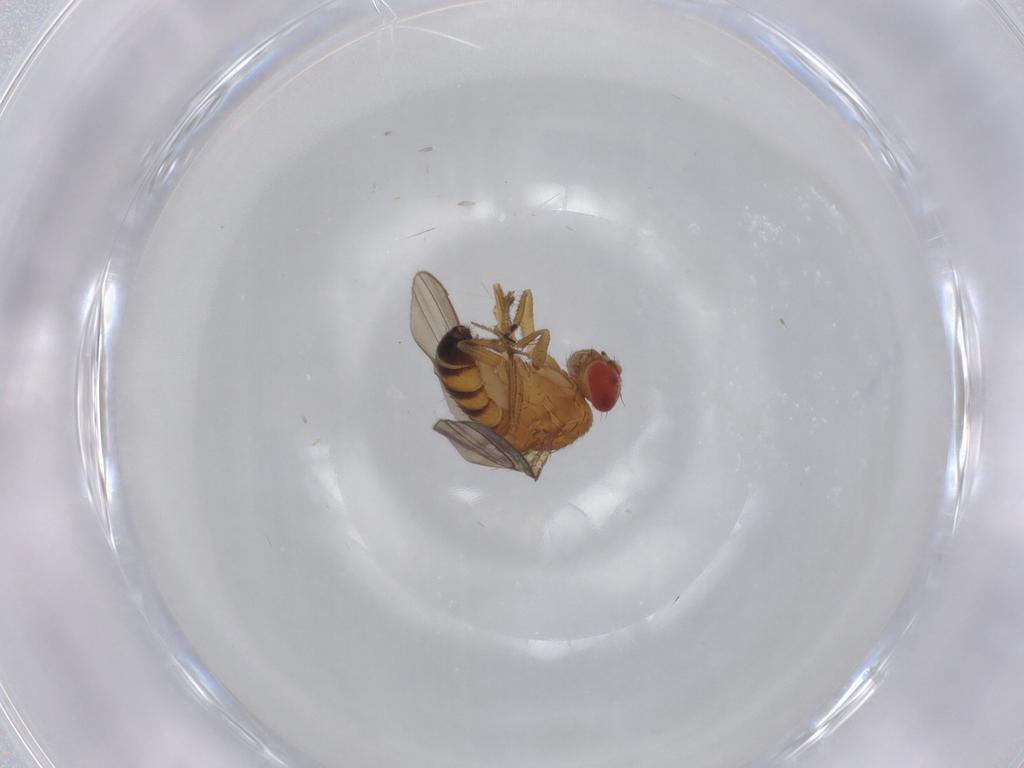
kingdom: Animalia
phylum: Arthropoda
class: Insecta
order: Diptera
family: Drosophilidae
